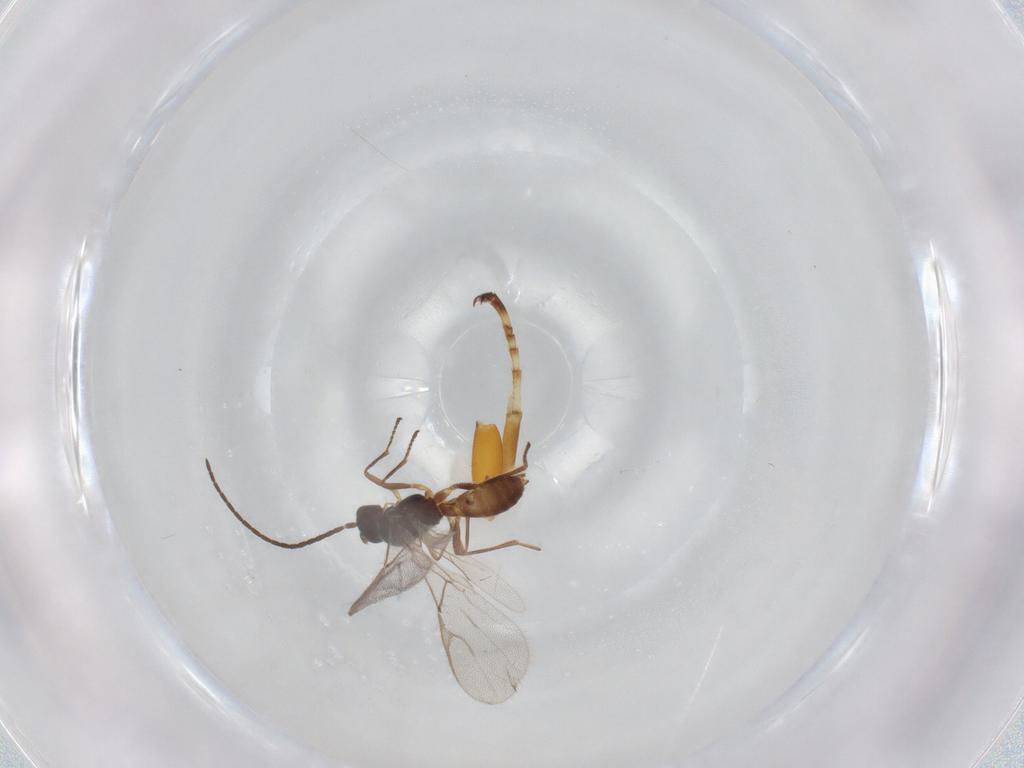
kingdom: Animalia
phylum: Arthropoda
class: Insecta
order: Hymenoptera
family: Braconidae
